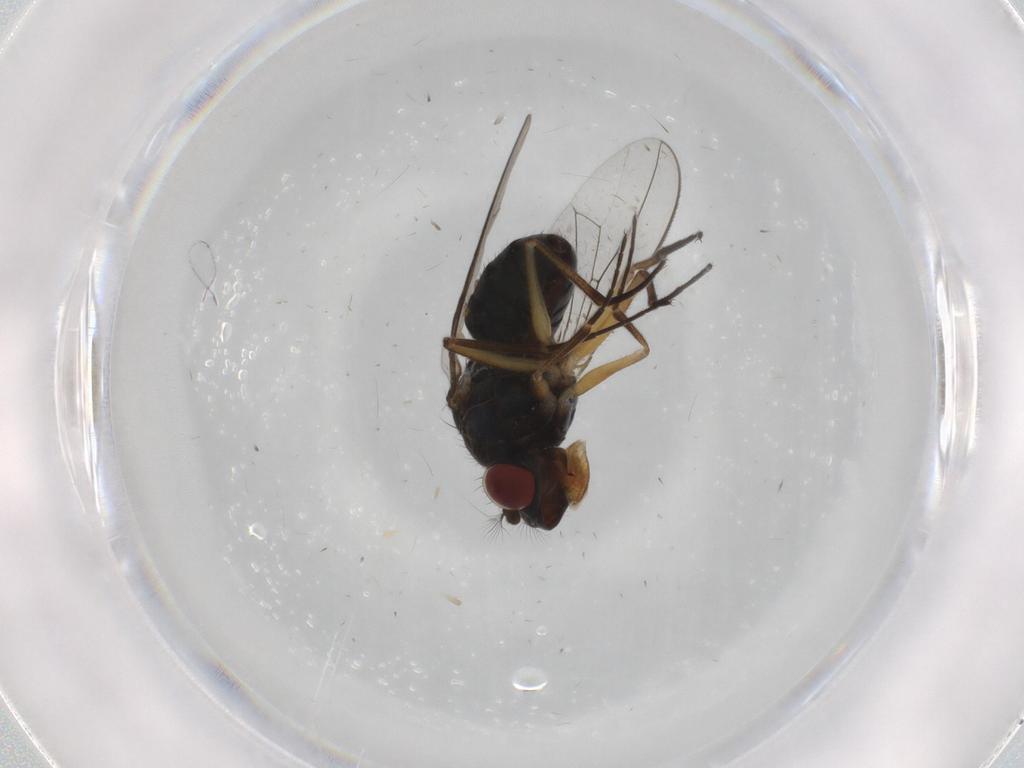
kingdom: Animalia
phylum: Arthropoda
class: Insecta
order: Diptera
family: Ephydridae
